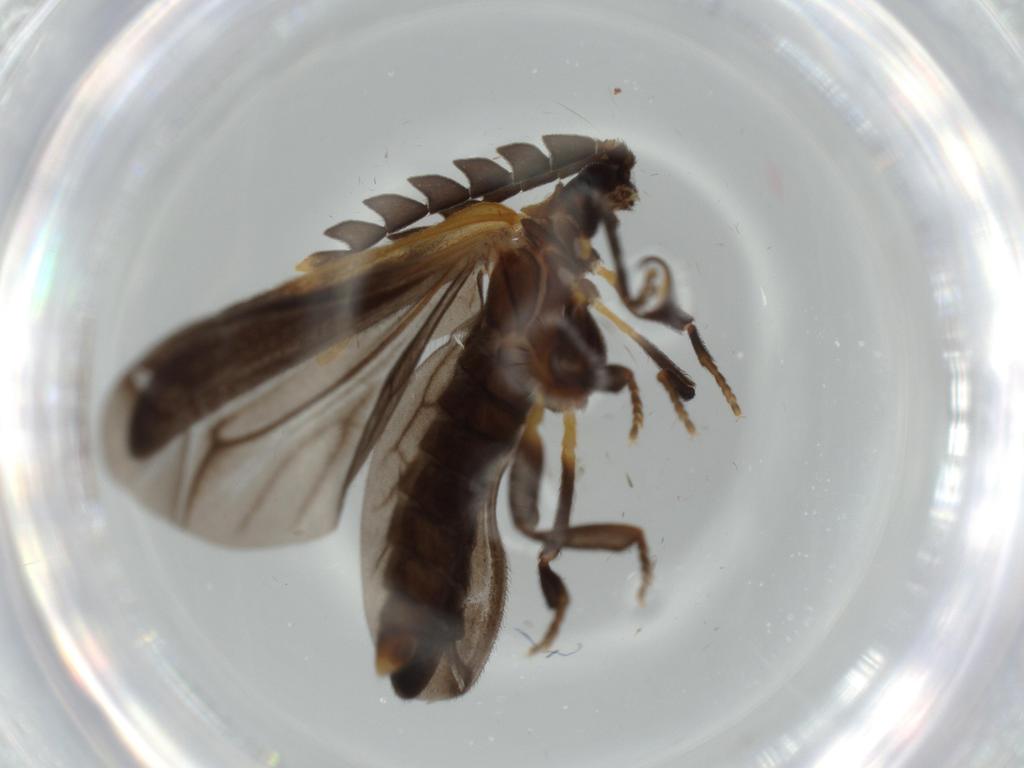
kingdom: Animalia
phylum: Arthropoda
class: Insecta
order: Coleoptera
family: Lycidae
